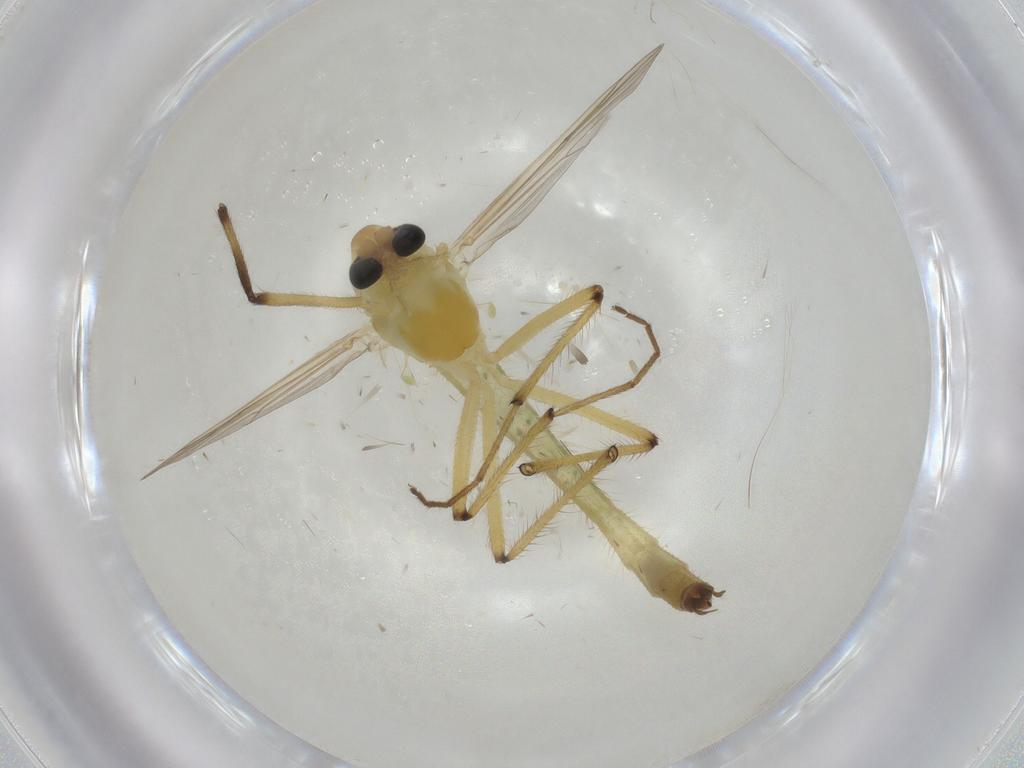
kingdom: Animalia
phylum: Arthropoda
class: Insecta
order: Diptera
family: Chironomidae
